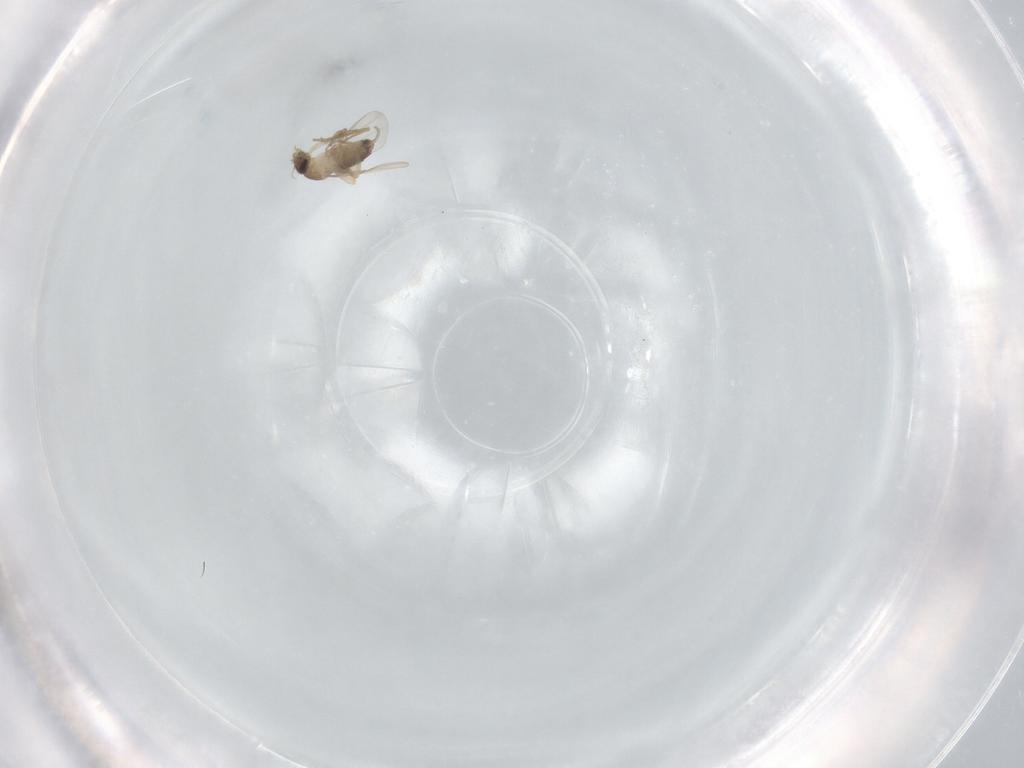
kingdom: Animalia
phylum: Arthropoda
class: Insecta
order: Diptera
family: Phoridae
